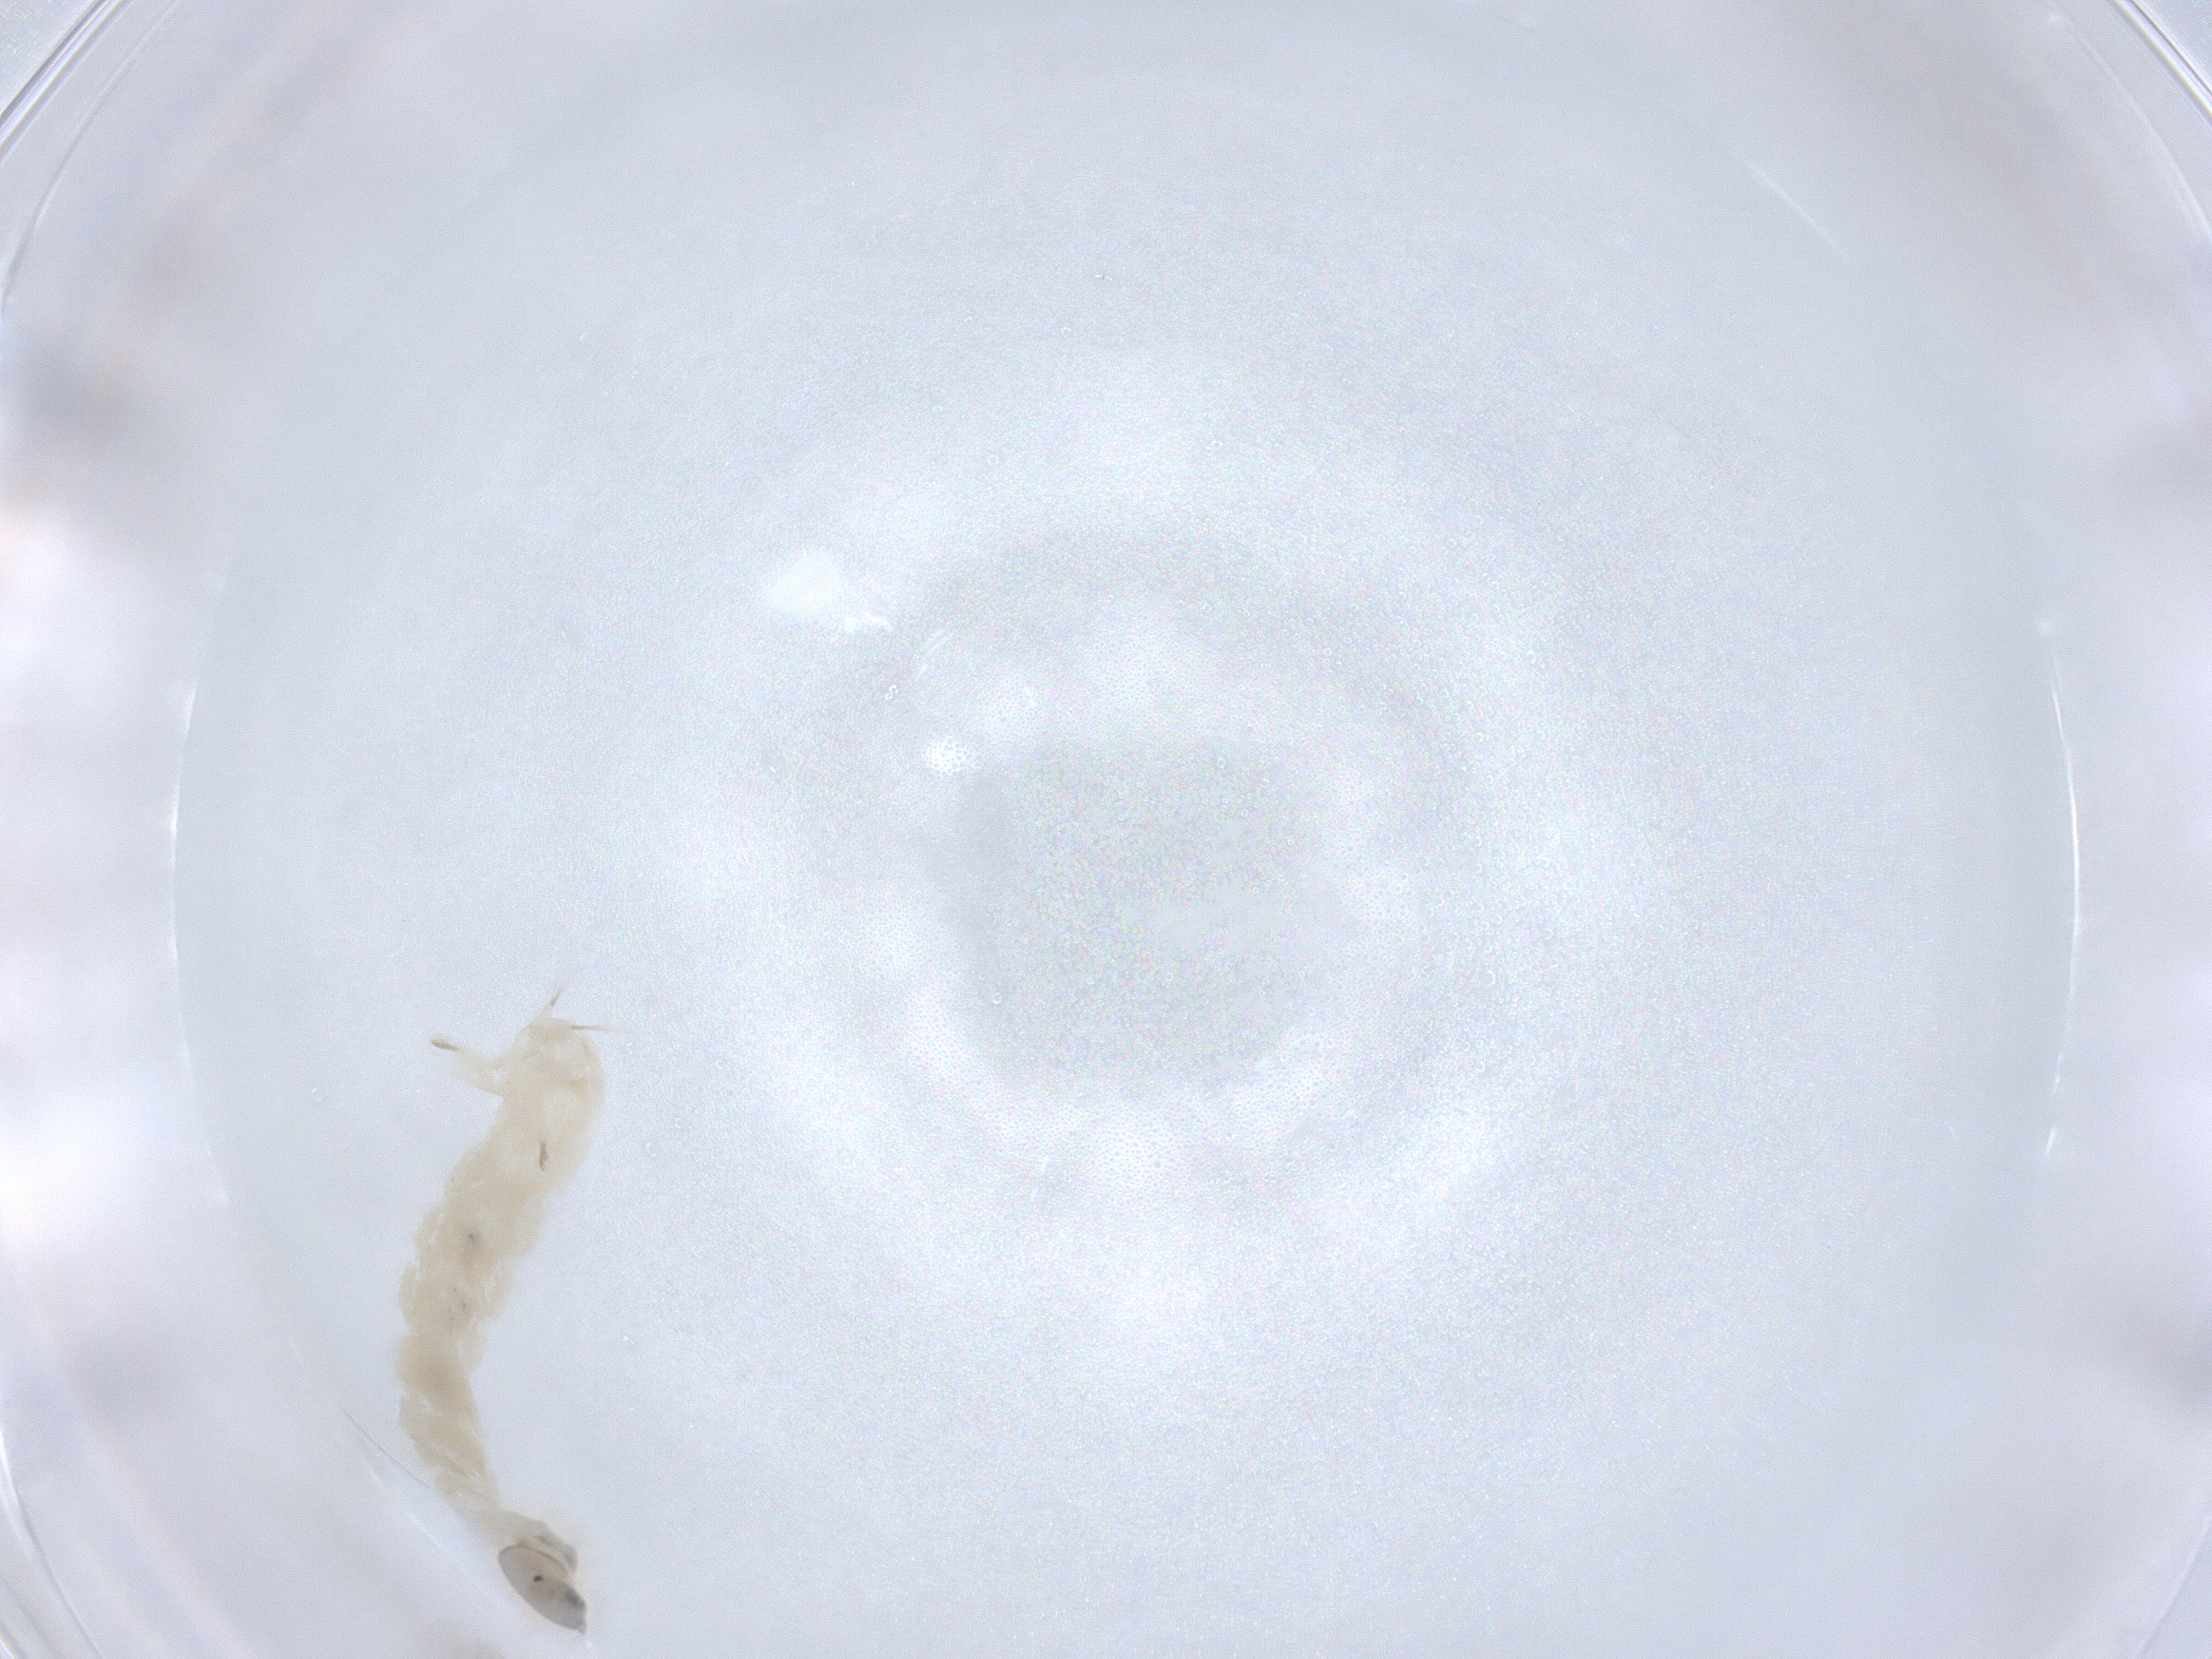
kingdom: Animalia
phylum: Arthropoda
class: Insecta
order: Diptera
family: Chironomidae
